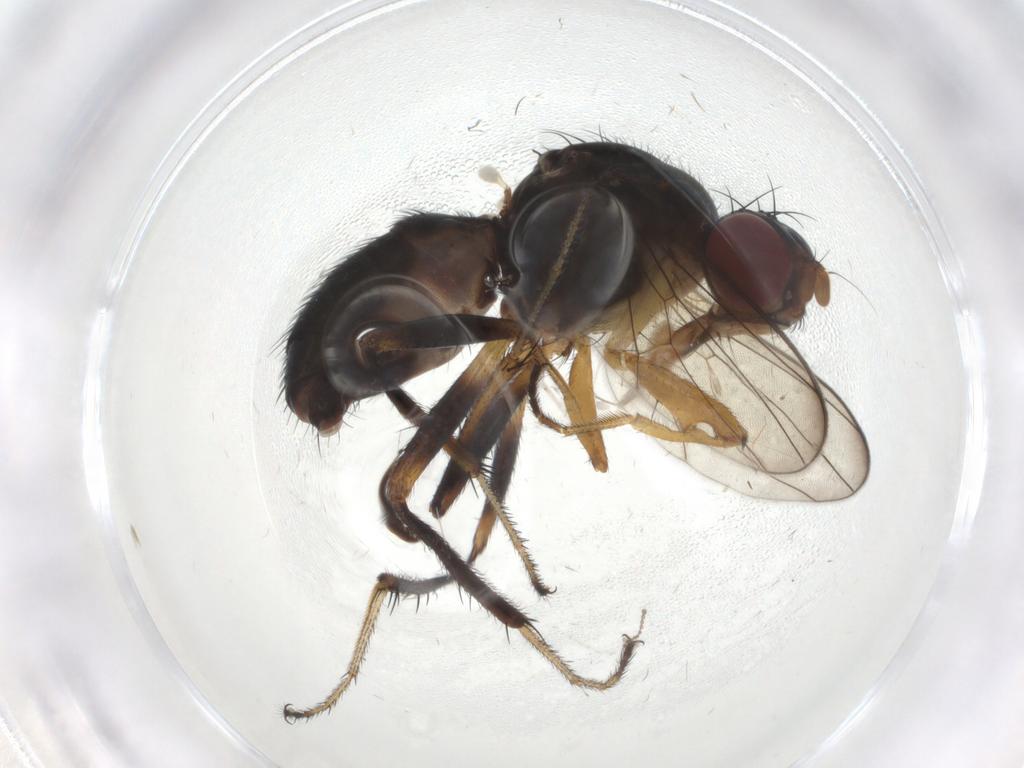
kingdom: Animalia
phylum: Arthropoda
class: Insecta
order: Diptera
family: Sepsidae
